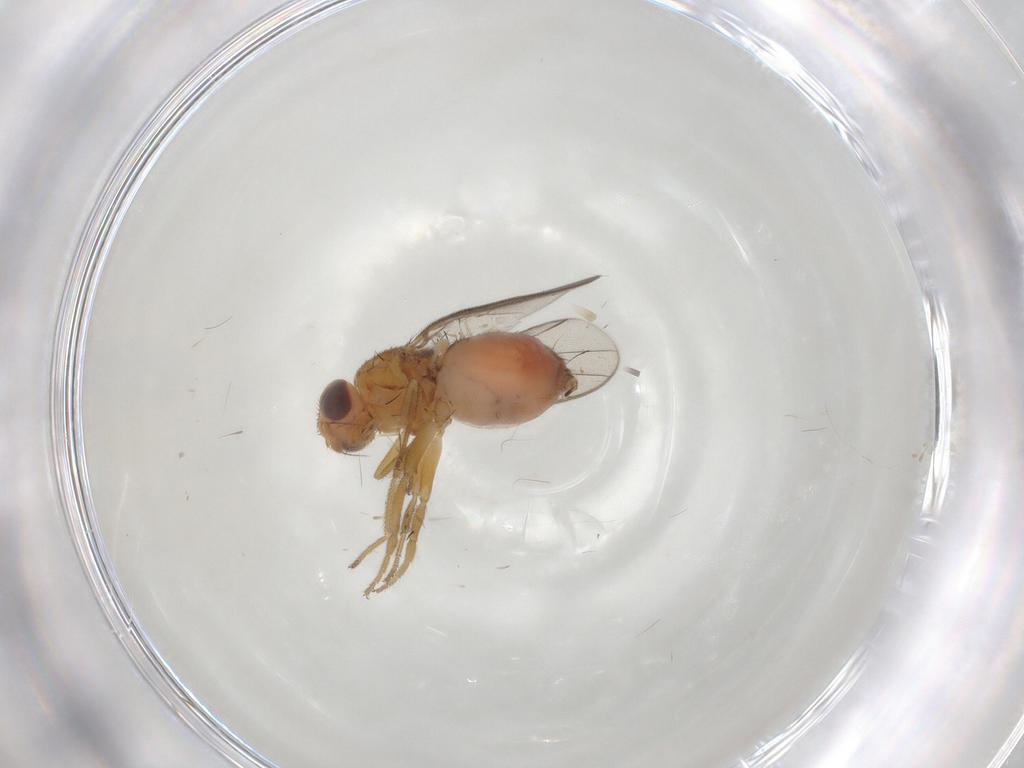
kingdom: Animalia
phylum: Arthropoda
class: Insecta
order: Diptera
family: Chloropidae
